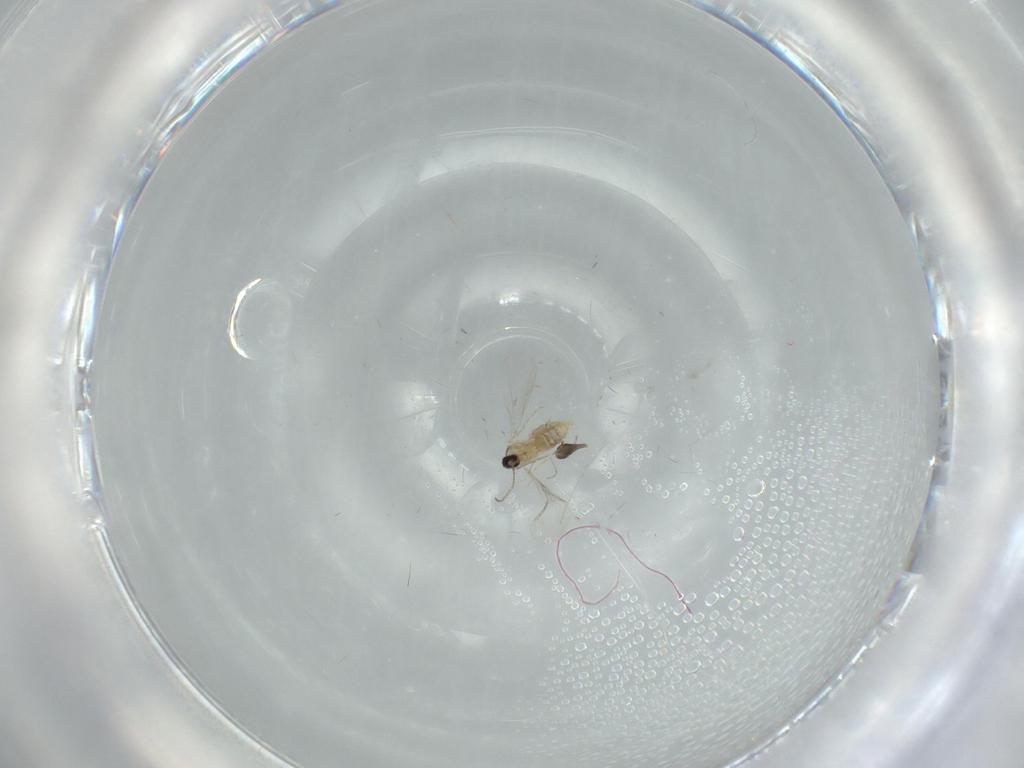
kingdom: Animalia
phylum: Arthropoda
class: Insecta
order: Diptera
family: Cecidomyiidae
